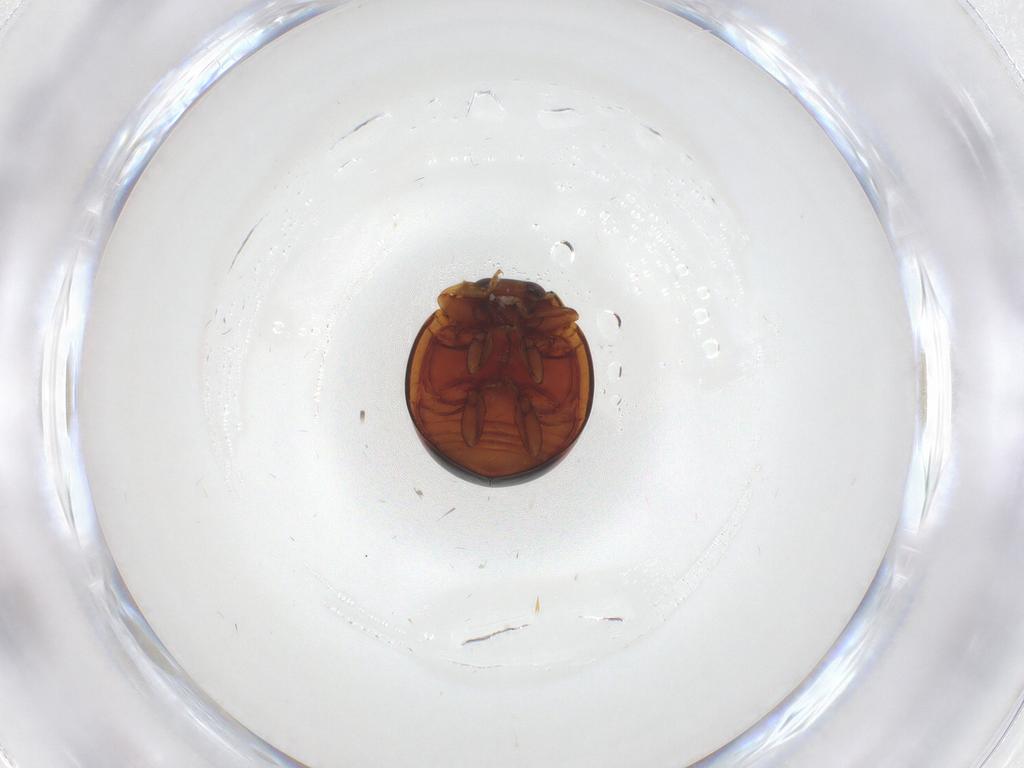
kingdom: Animalia
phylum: Arthropoda
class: Insecta
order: Coleoptera
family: Coccinellidae
